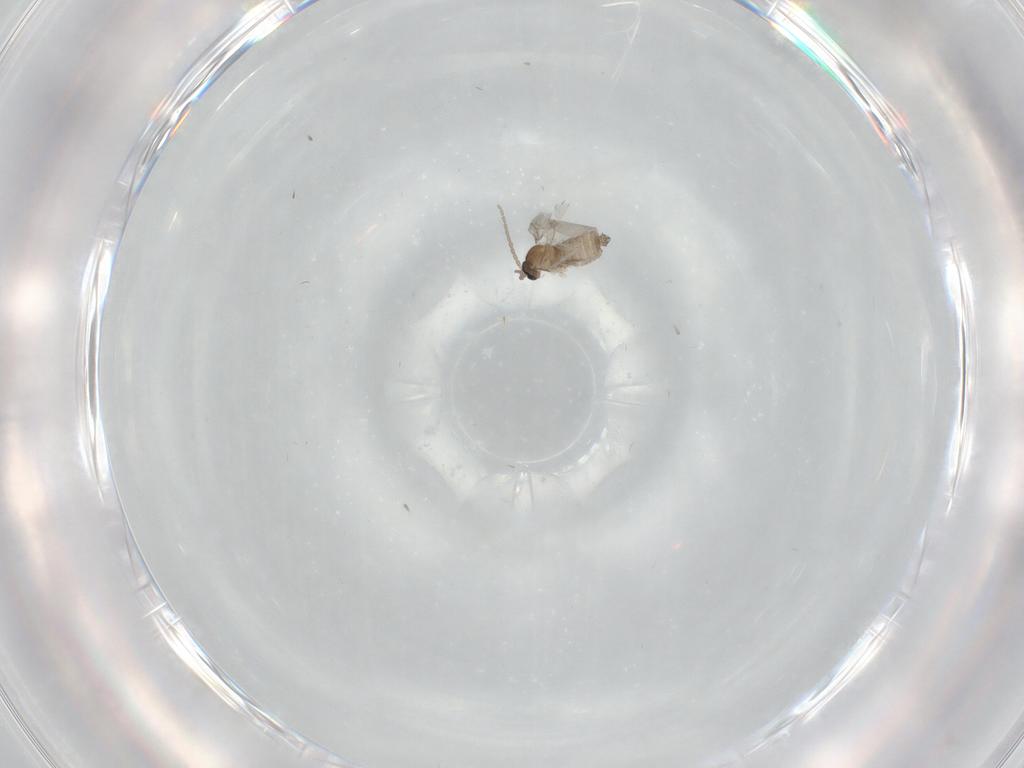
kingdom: Animalia
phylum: Arthropoda
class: Insecta
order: Diptera
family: Cecidomyiidae
